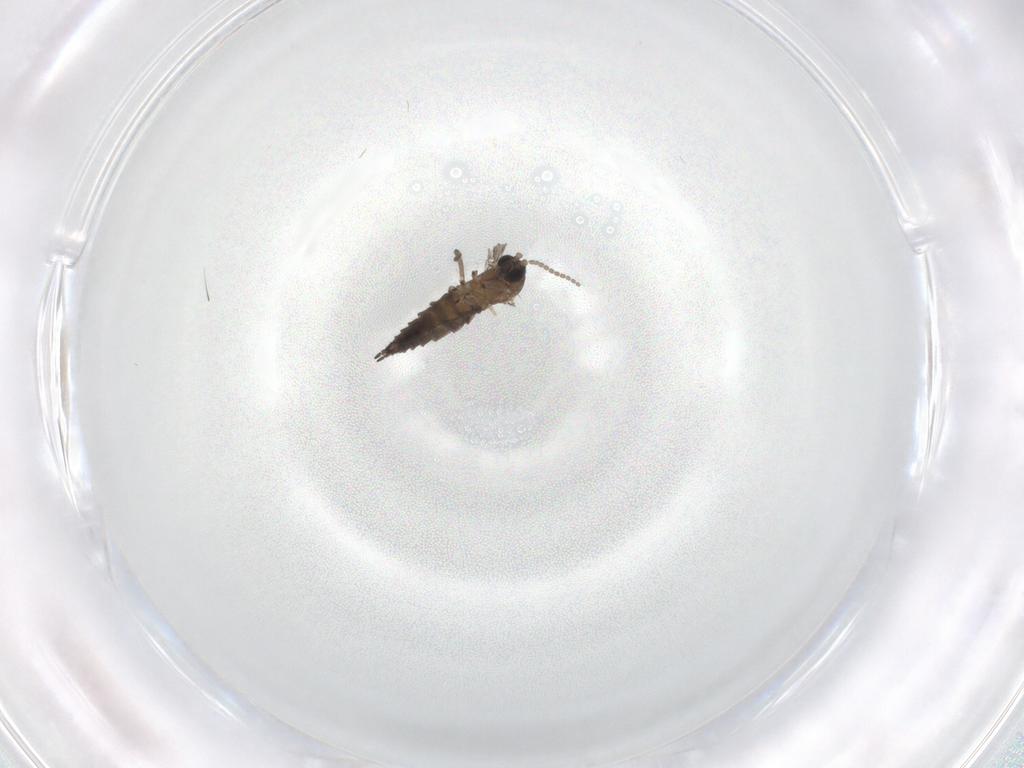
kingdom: Animalia
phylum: Arthropoda
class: Insecta
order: Diptera
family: Sciaridae
